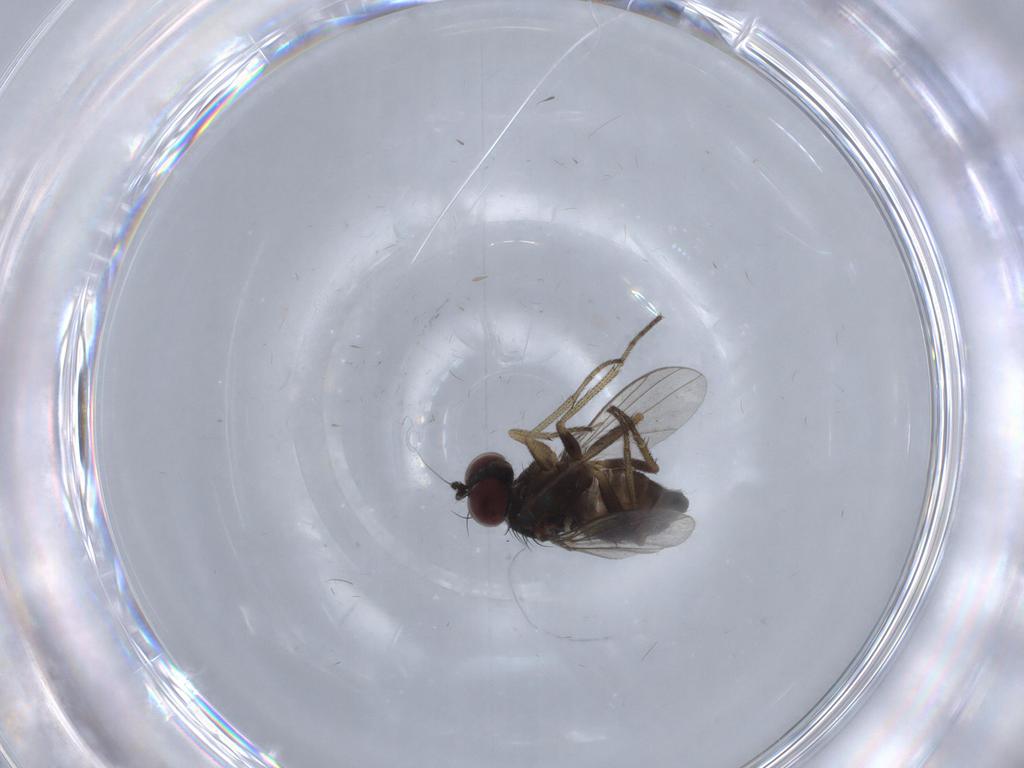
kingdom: Animalia
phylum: Arthropoda
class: Insecta
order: Diptera
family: Dolichopodidae
